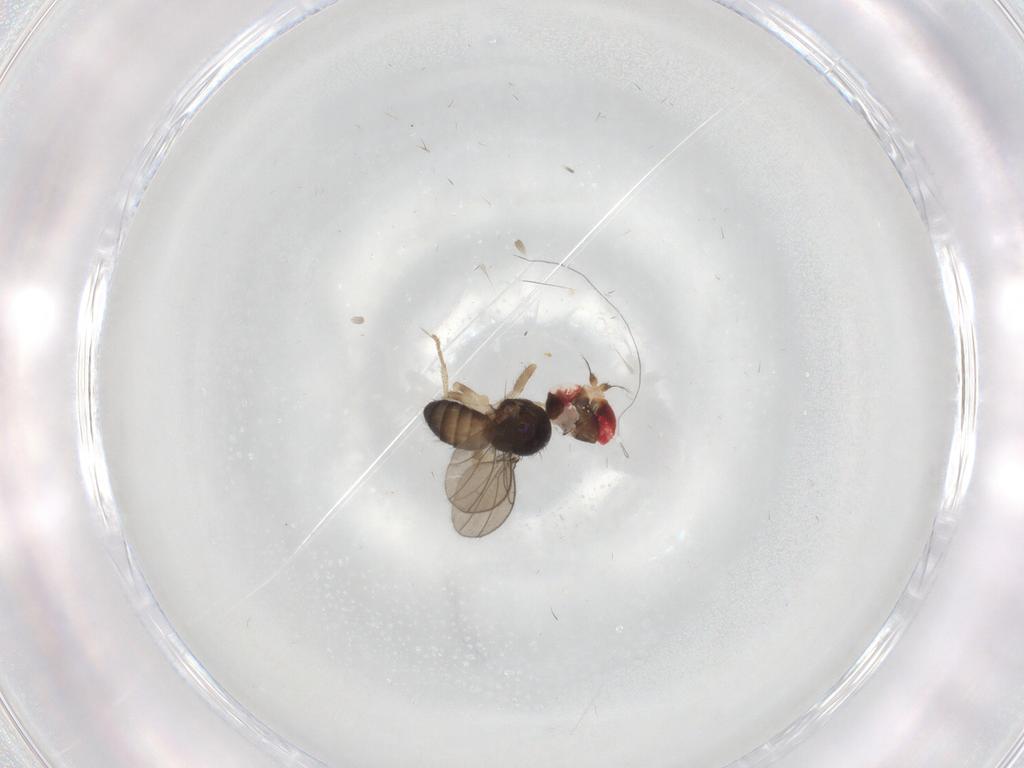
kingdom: Animalia
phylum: Arthropoda
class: Insecta
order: Diptera
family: Drosophilidae
